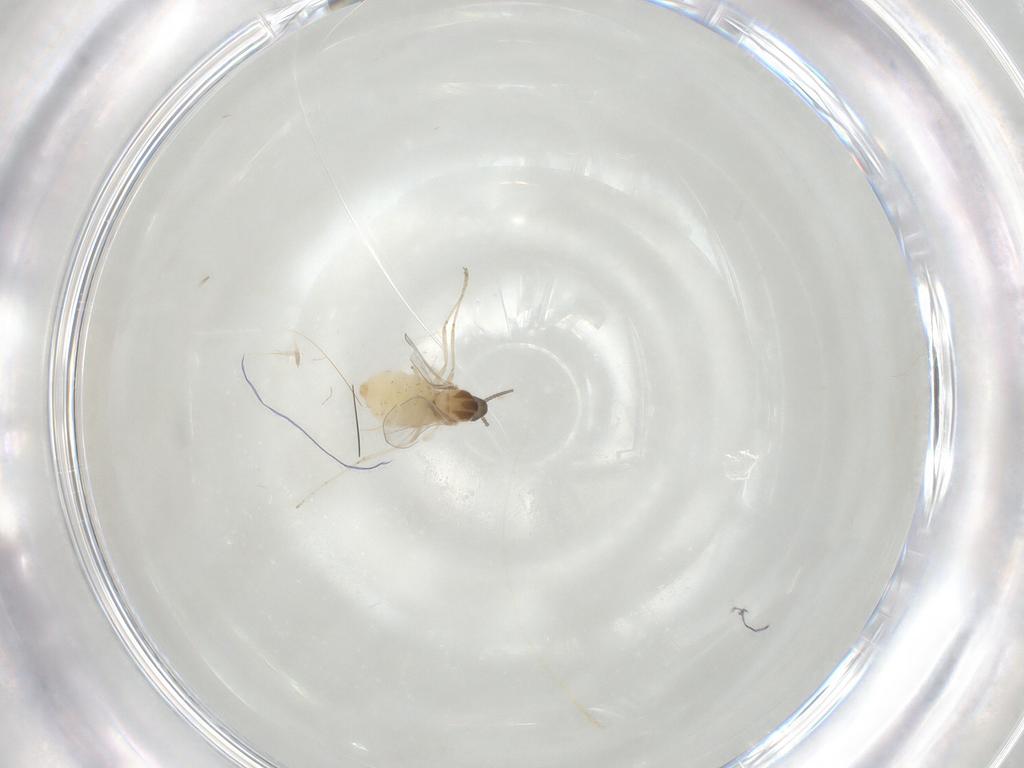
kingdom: Animalia
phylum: Arthropoda
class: Insecta
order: Diptera
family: Cecidomyiidae
